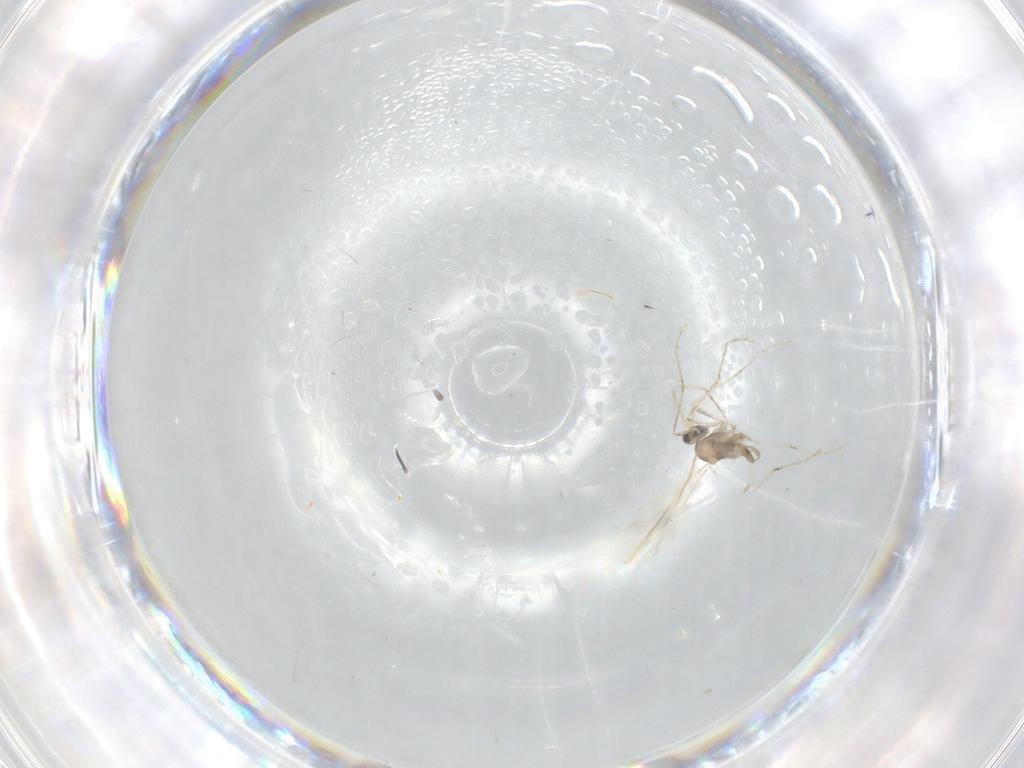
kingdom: Animalia
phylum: Arthropoda
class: Insecta
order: Diptera
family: Cecidomyiidae
